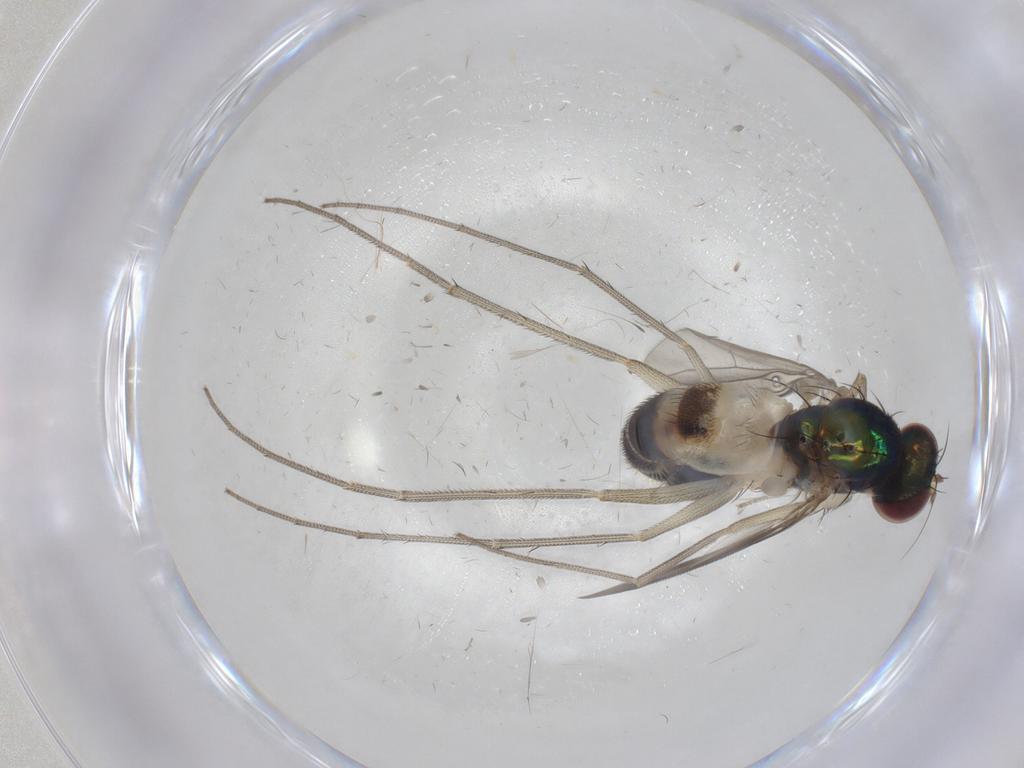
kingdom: Animalia
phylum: Arthropoda
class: Insecta
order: Diptera
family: Dolichopodidae
